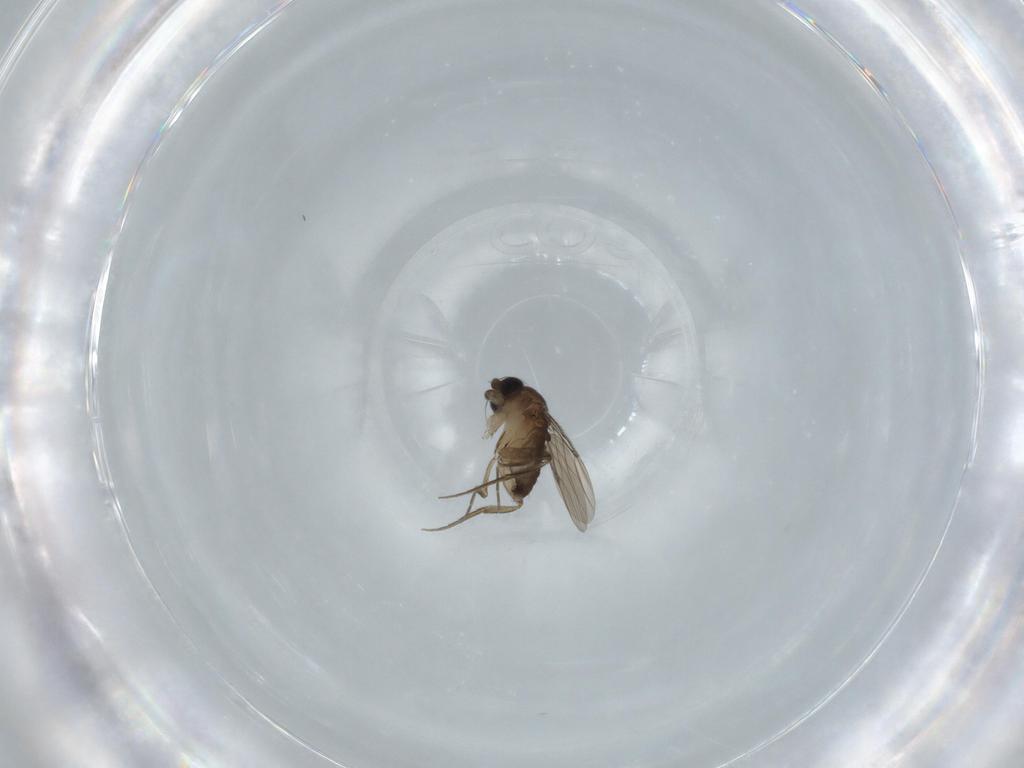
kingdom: Animalia
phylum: Arthropoda
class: Insecta
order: Diptera
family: Phoridae
